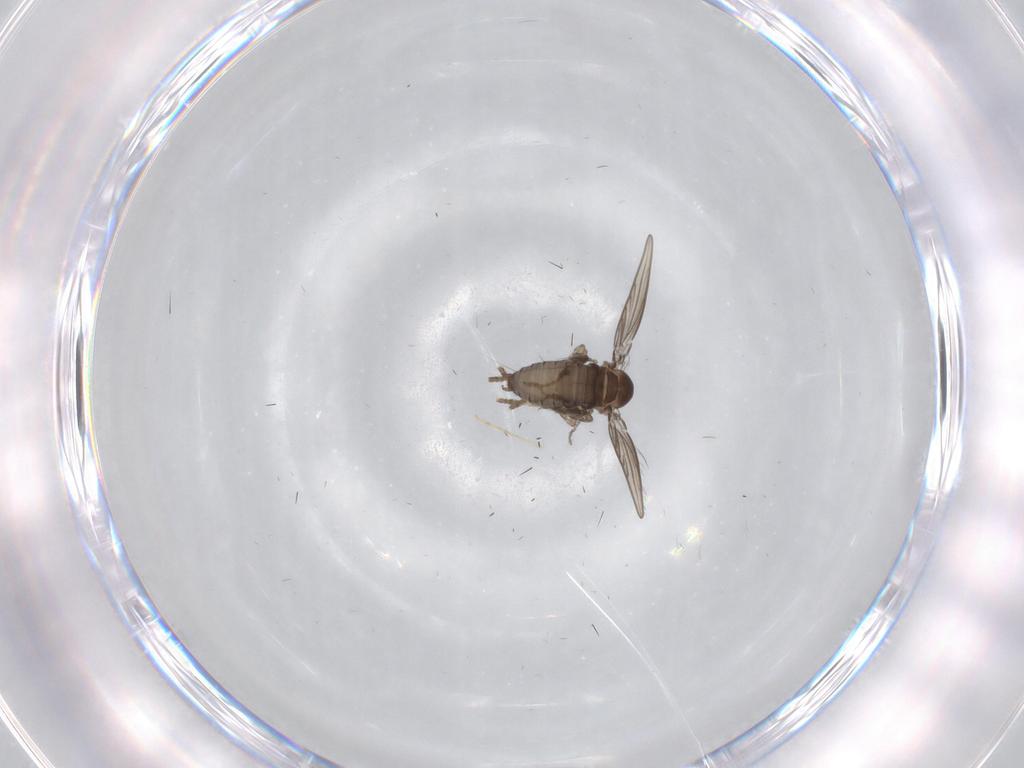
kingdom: Animalia
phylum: Arthropoda
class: Insecta
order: Diptera
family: Psychodidae
